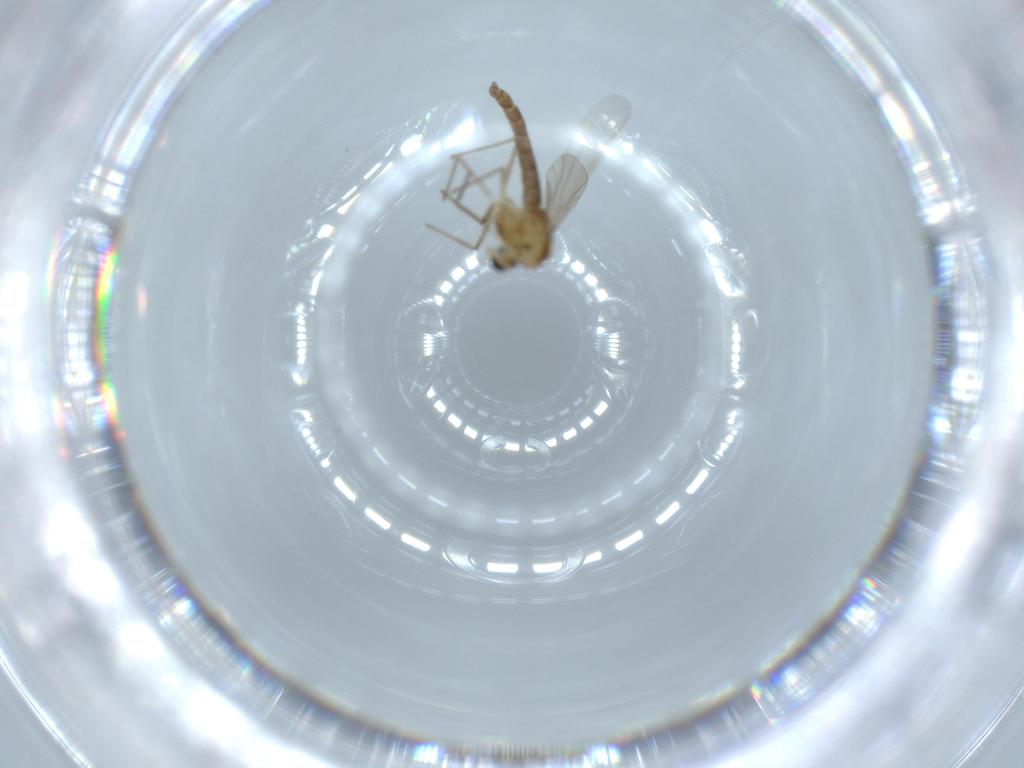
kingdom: Animalia
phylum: Arthropoda
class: Insecta
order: Diptera
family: Chironomidae
